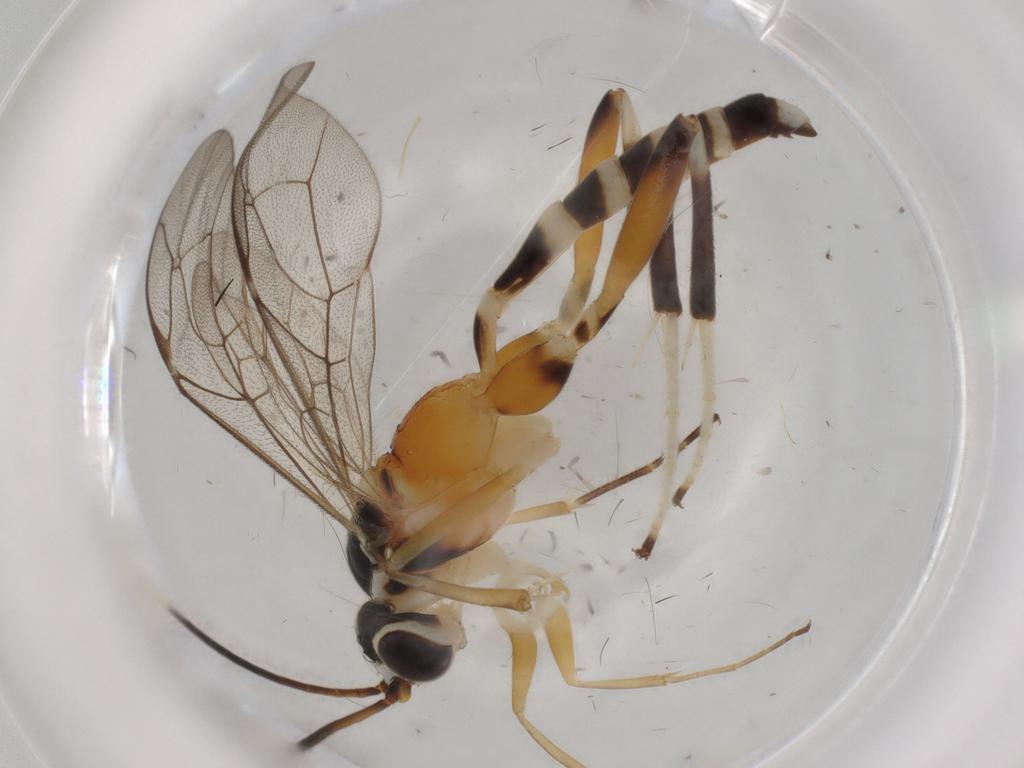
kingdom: Animalia
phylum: Arthropoda
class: Insecta
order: Hymenoptera
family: Ichneumonidae
